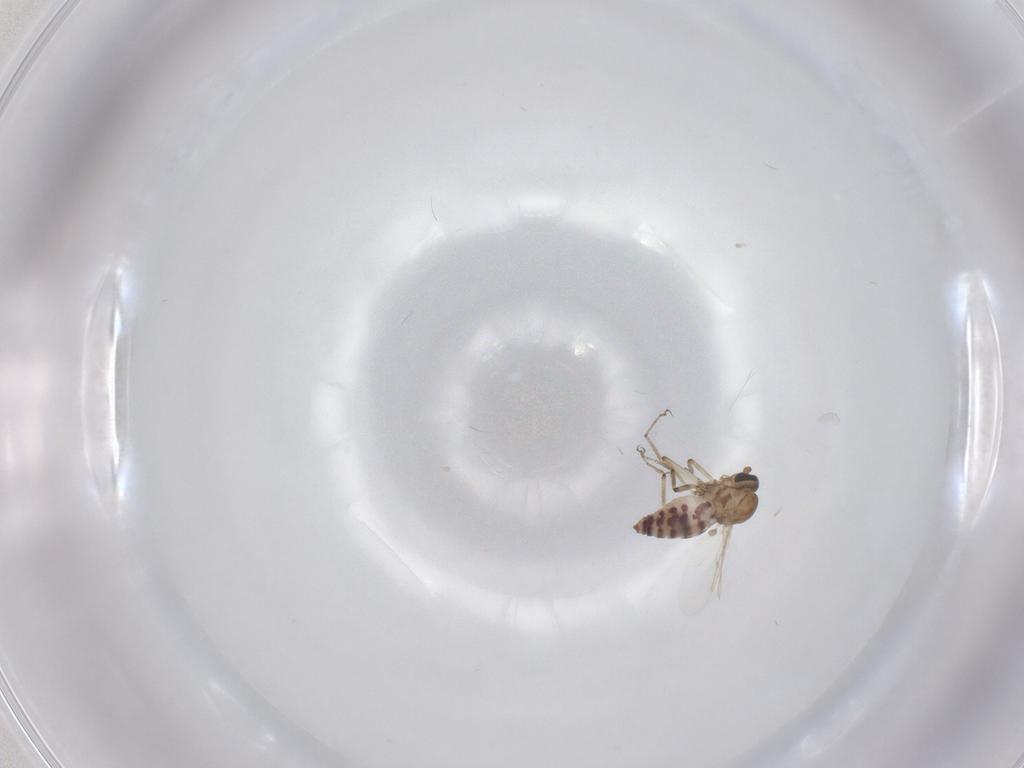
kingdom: Animalia
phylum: Arthropoda
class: Insecta
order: Diptera
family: Ceratopogonidae
